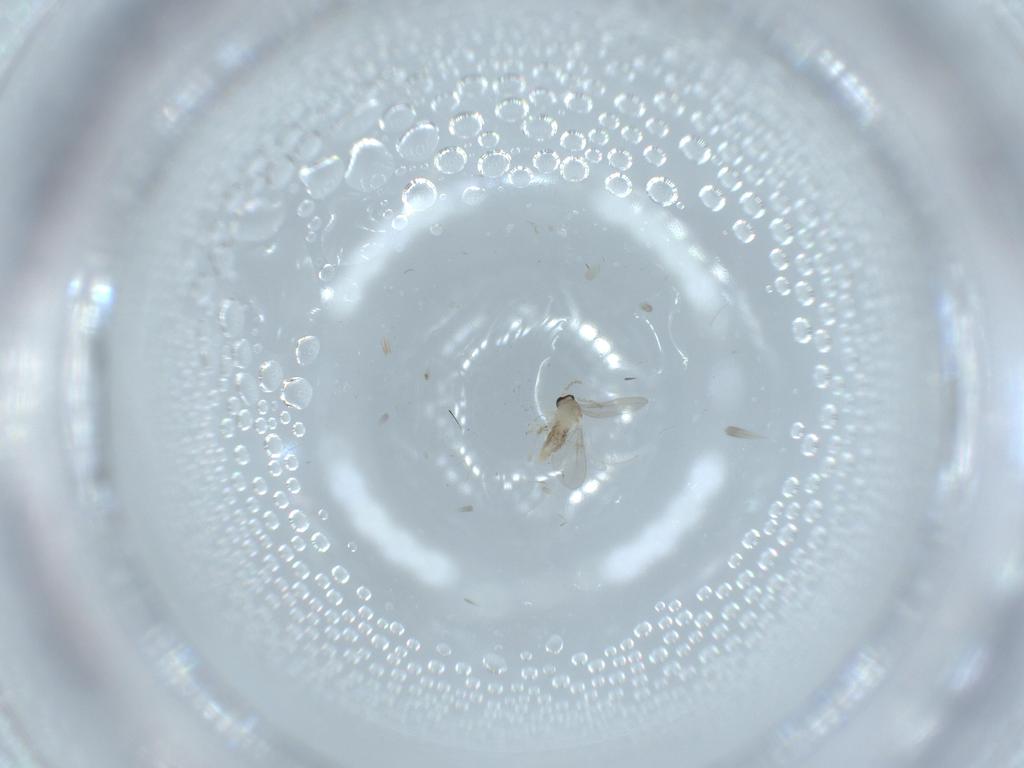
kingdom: Animalia
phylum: Arthropoda
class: Insecta
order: Diptera
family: Cecidomyiidae
